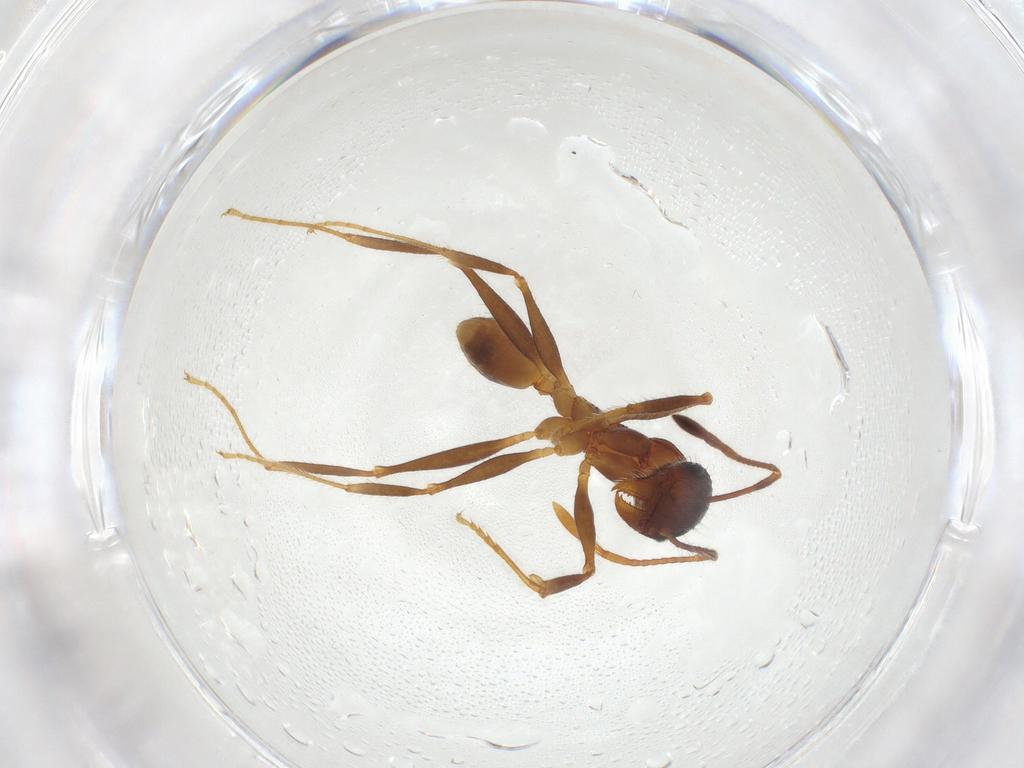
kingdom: Animalia
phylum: Arthropoda
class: Insecta
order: Hymenoptera
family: Formicidae
